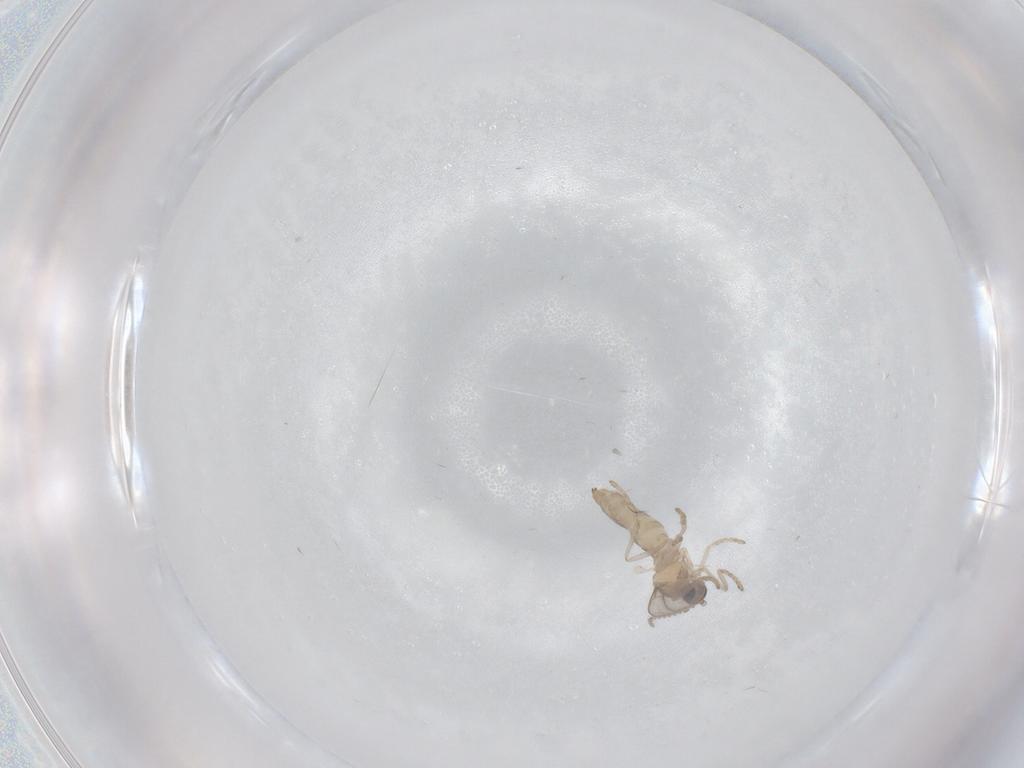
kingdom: Animalia
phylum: Arthropoda
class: Insecta
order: Diptera
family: Cecidomyiidae
